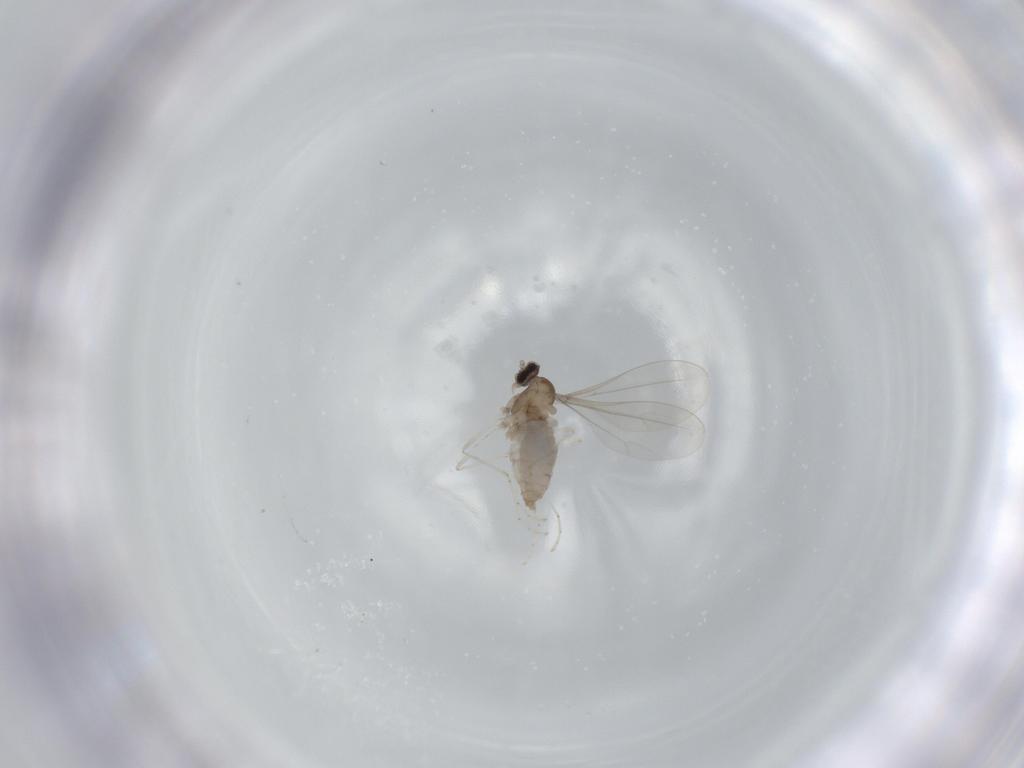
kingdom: Animalia
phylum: Arthropoda
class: Insecta
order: Diptera
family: Cecidomyiidae
